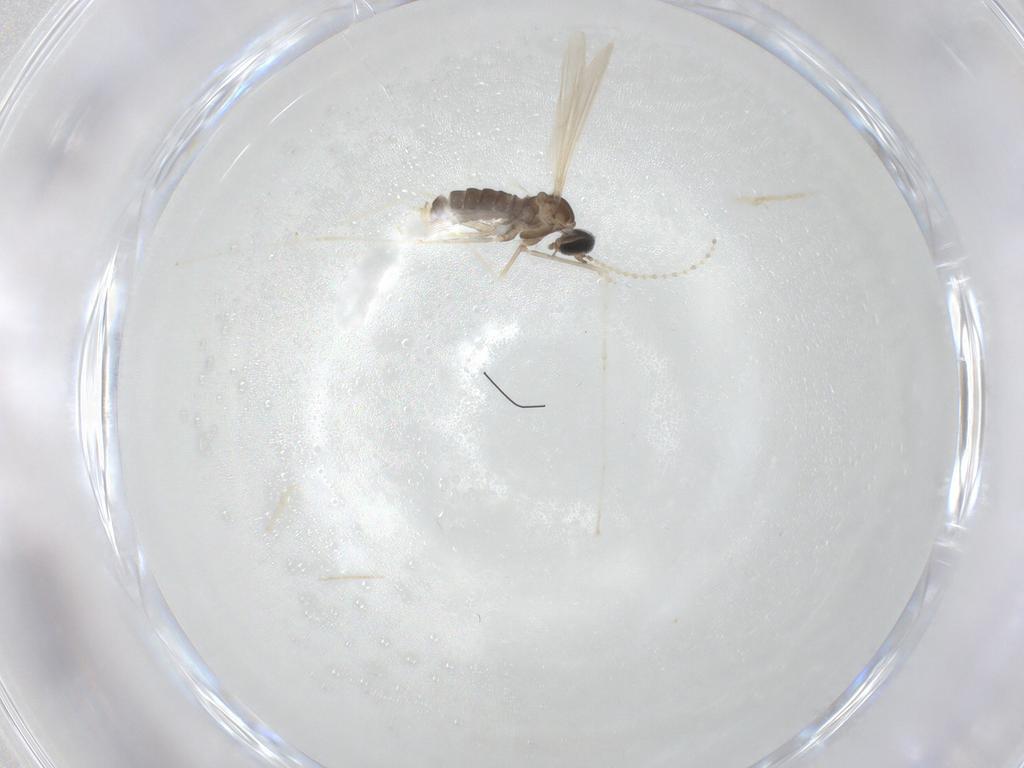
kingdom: Animalia
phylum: Arthropoda
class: Insecta
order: Diptera
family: Cecidomyiidae
